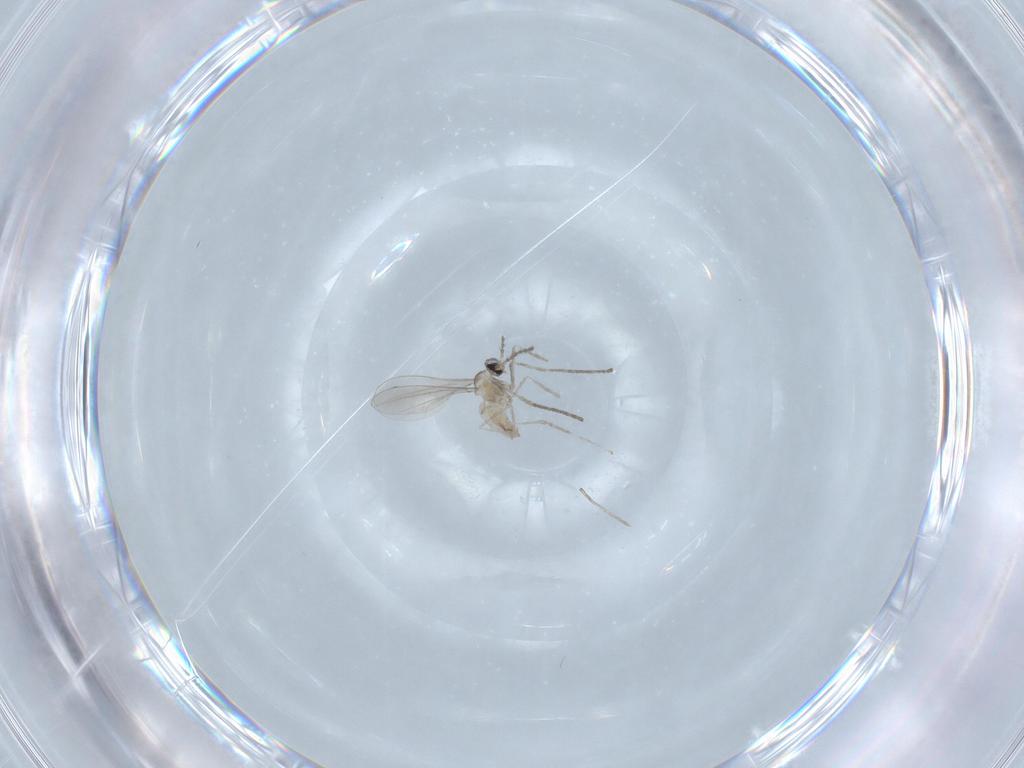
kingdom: Animalia
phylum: Arthropoda
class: Insecta
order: Diptera
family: Cecidomyiidae
